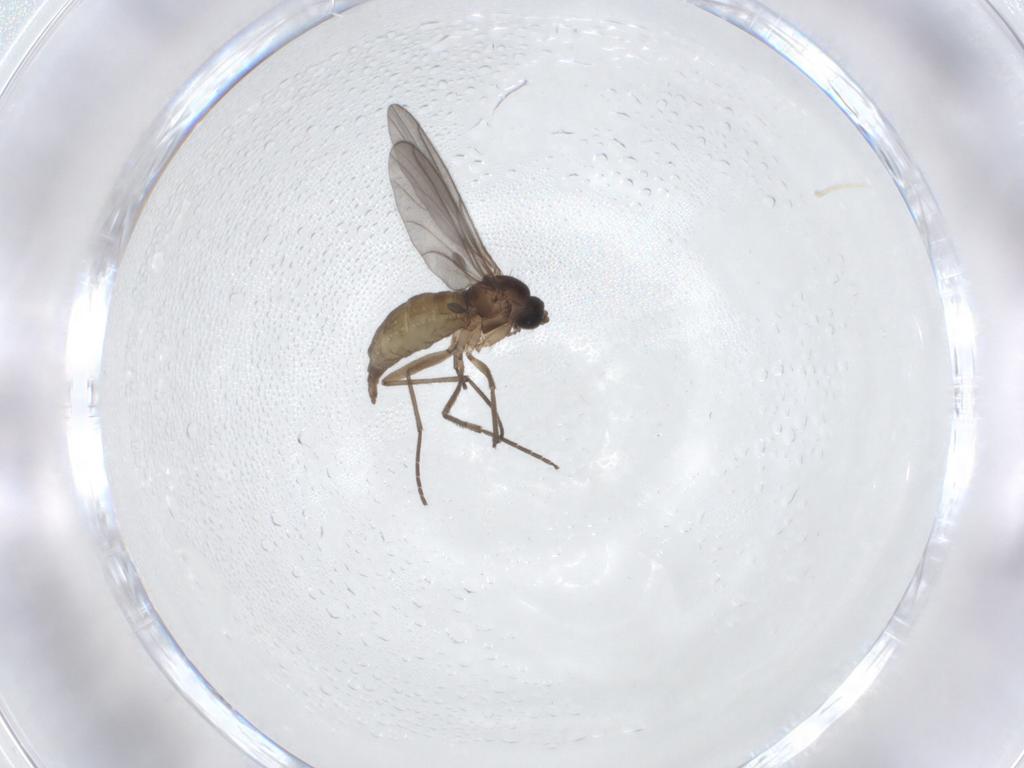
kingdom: Animalia
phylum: Arthropoda
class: Insecta
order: Diptera
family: Sciaridae
